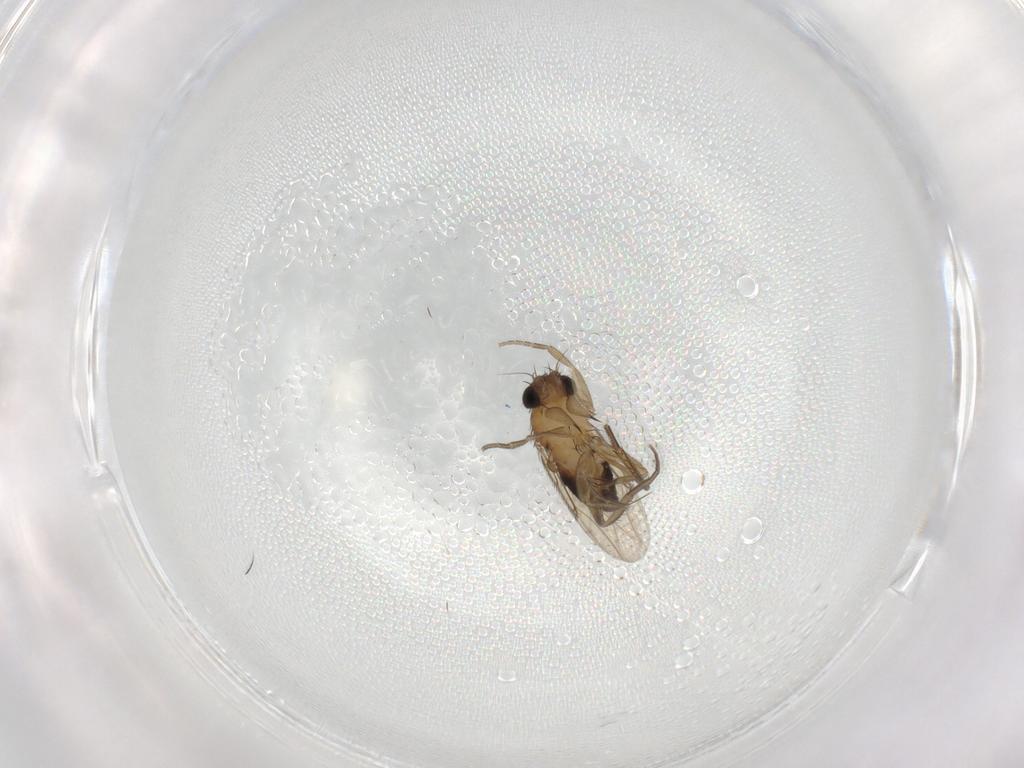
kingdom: Animalia
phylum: Arthropoda
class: Insecta
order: Diptera
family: Phoridae
